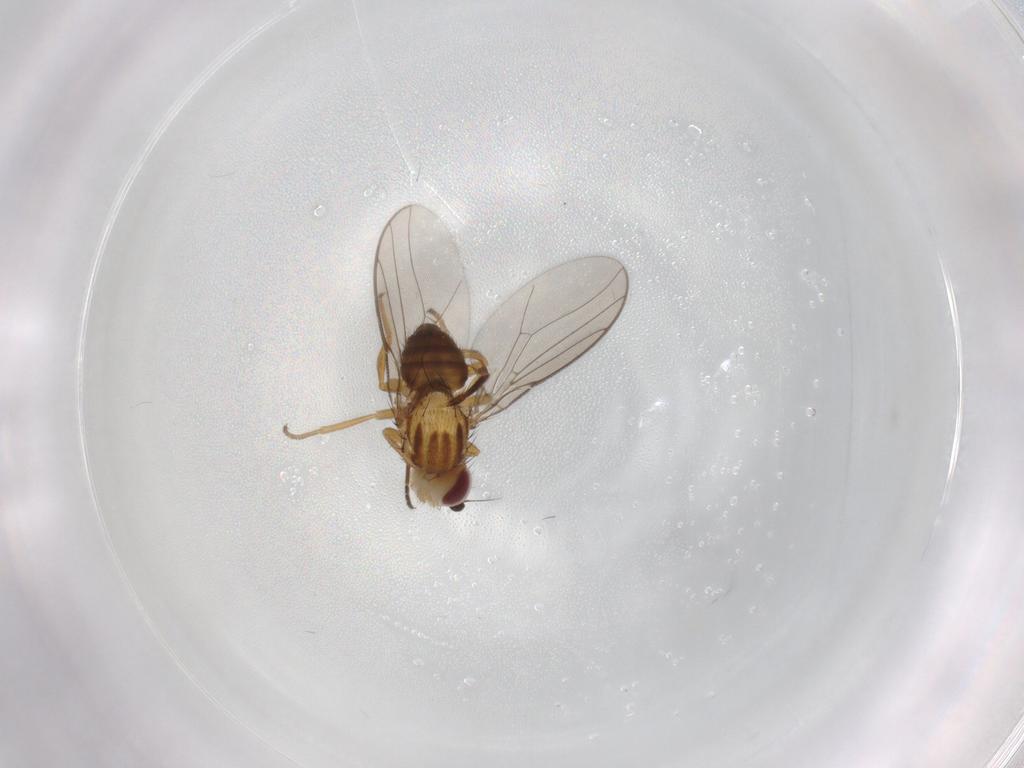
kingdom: Animalia
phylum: Arthropoda
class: Insecta
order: Diptera
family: Chloropidae
